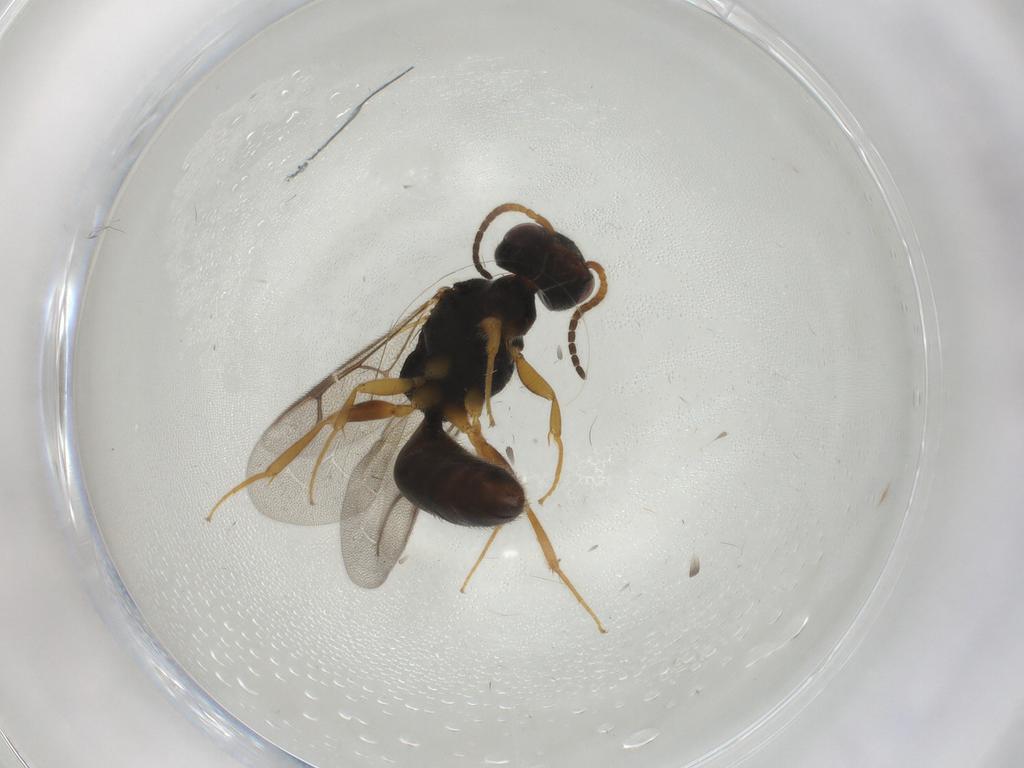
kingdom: Animalia
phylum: Arthropoda
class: Insecta
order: Hymenoptera
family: Bethylidae
